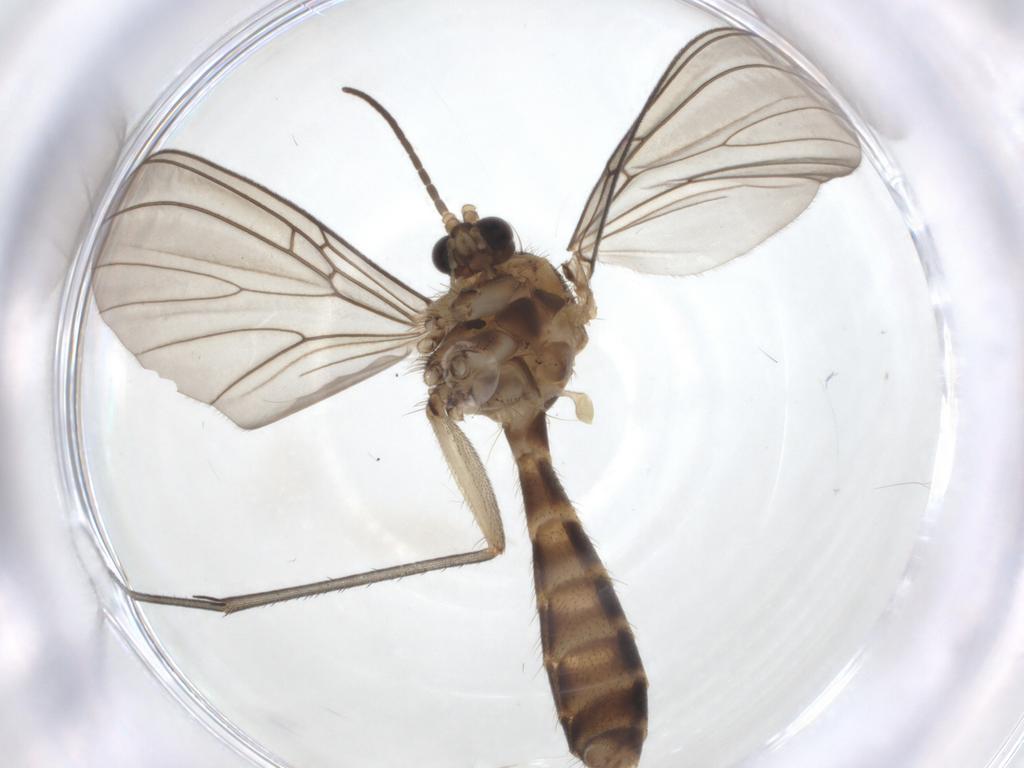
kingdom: Animalia
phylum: Arthropoda
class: Insecta
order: Diptera
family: Mycetophilidae
